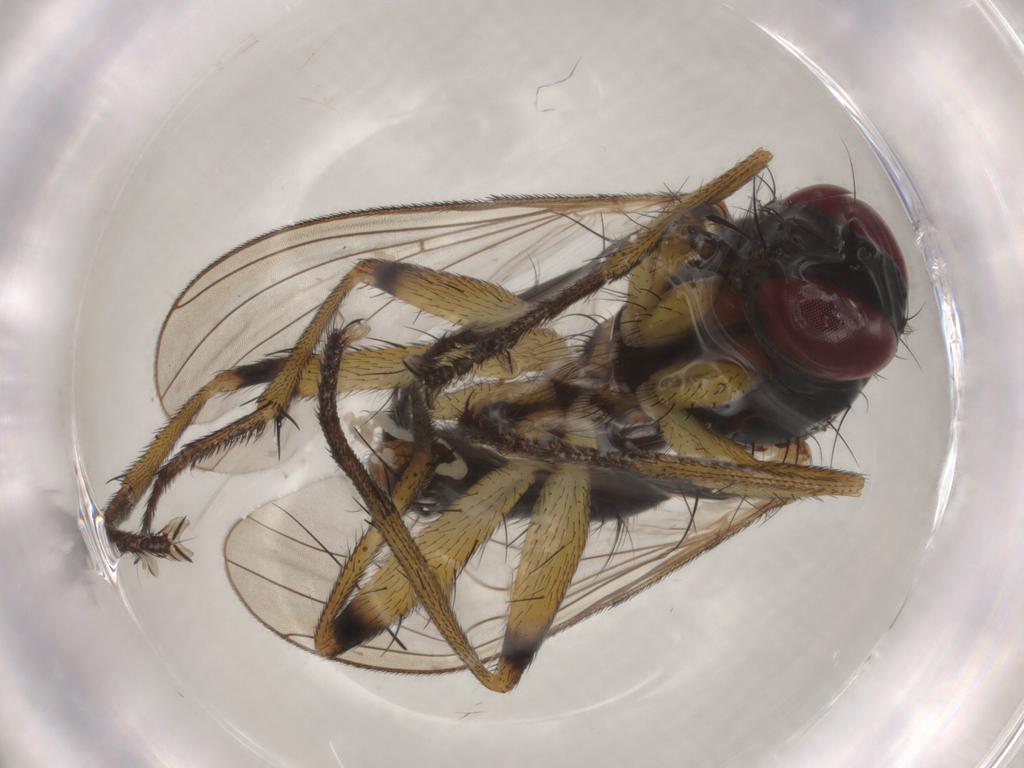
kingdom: Animalia
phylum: Arthropoda
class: Insecta
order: Diptera
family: Muscidae
